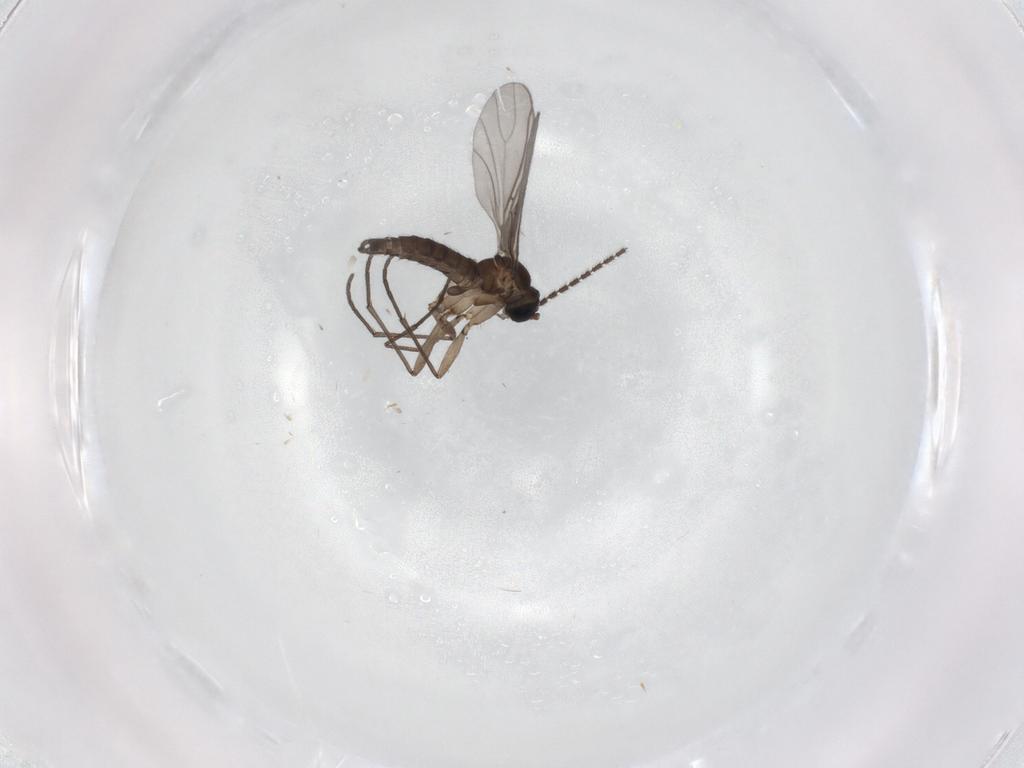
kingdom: Animalia
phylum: Arthropoda
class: Insecta
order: Diptera
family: Sciaridae
